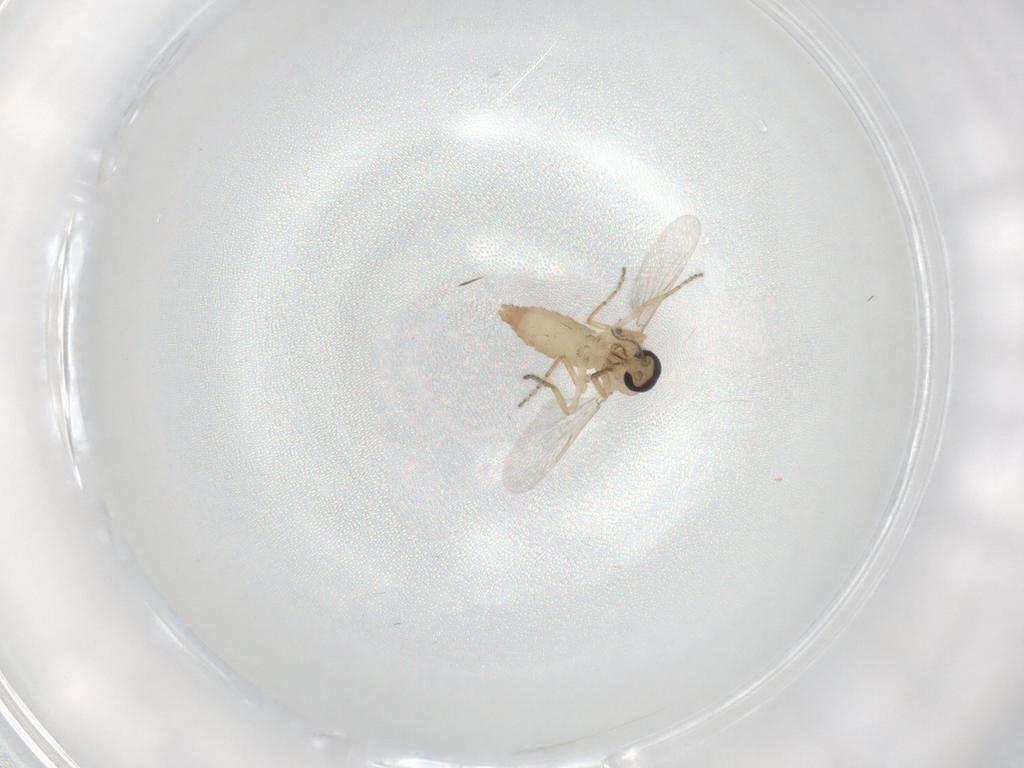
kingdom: Animalia
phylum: Arthropoda
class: Insecta
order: Diptera
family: Ceratopogonidae
